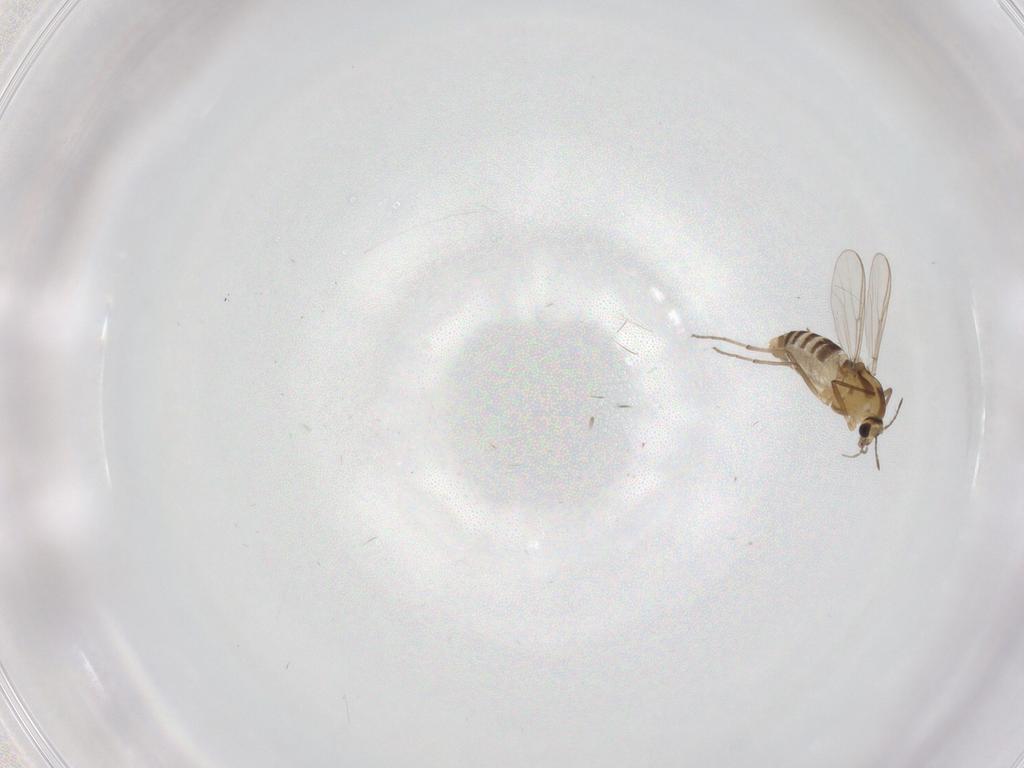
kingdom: Animalia
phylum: Arthropoda
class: Insecta
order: Diptera
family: Psychodidae
